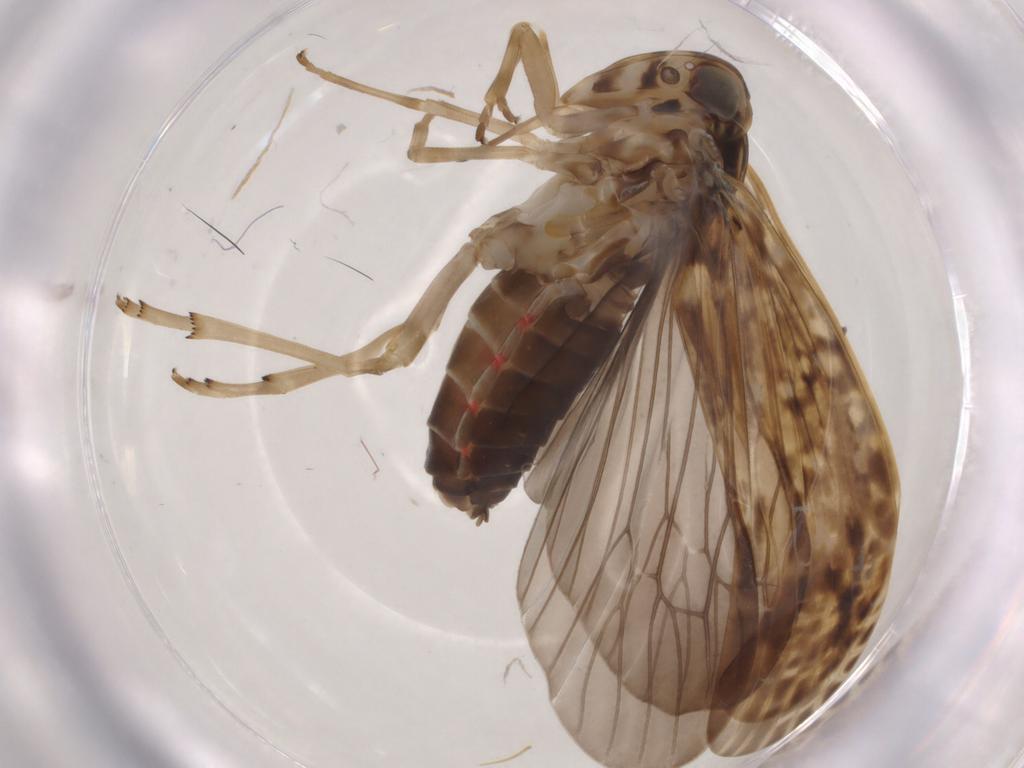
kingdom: Animalia
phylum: Arthropoda
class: Insecta
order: Hemiptera
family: Achilidae
